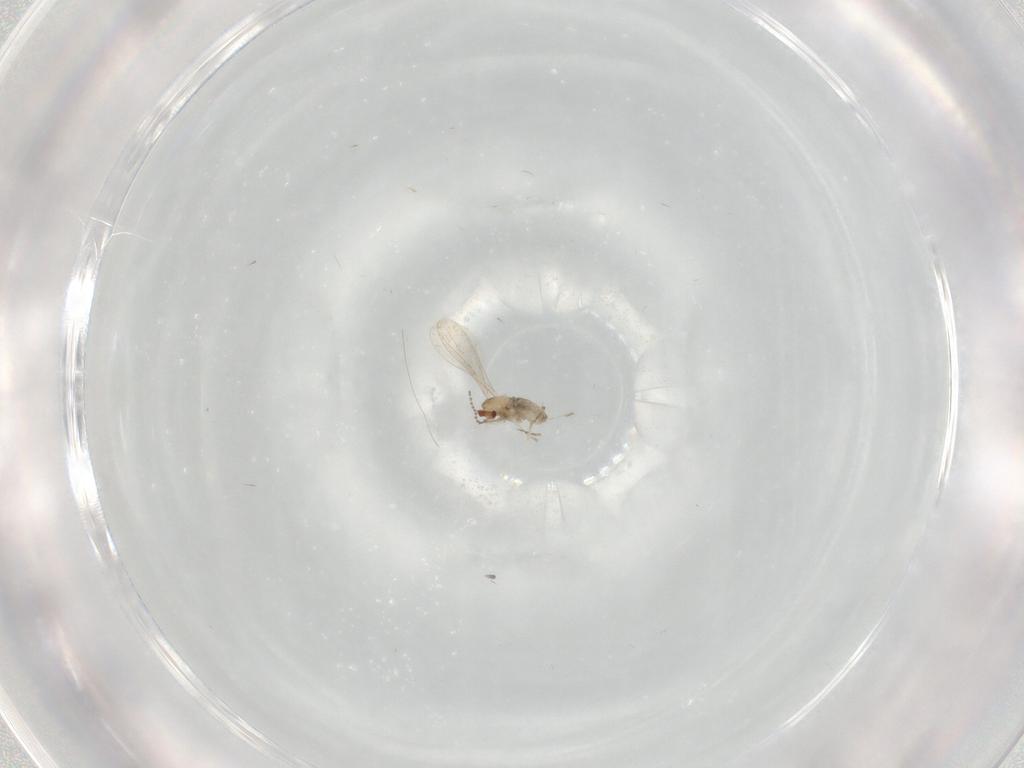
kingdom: Animalia
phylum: Arthropoda
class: Insecta
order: Diptera
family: Cecidomyiidae
